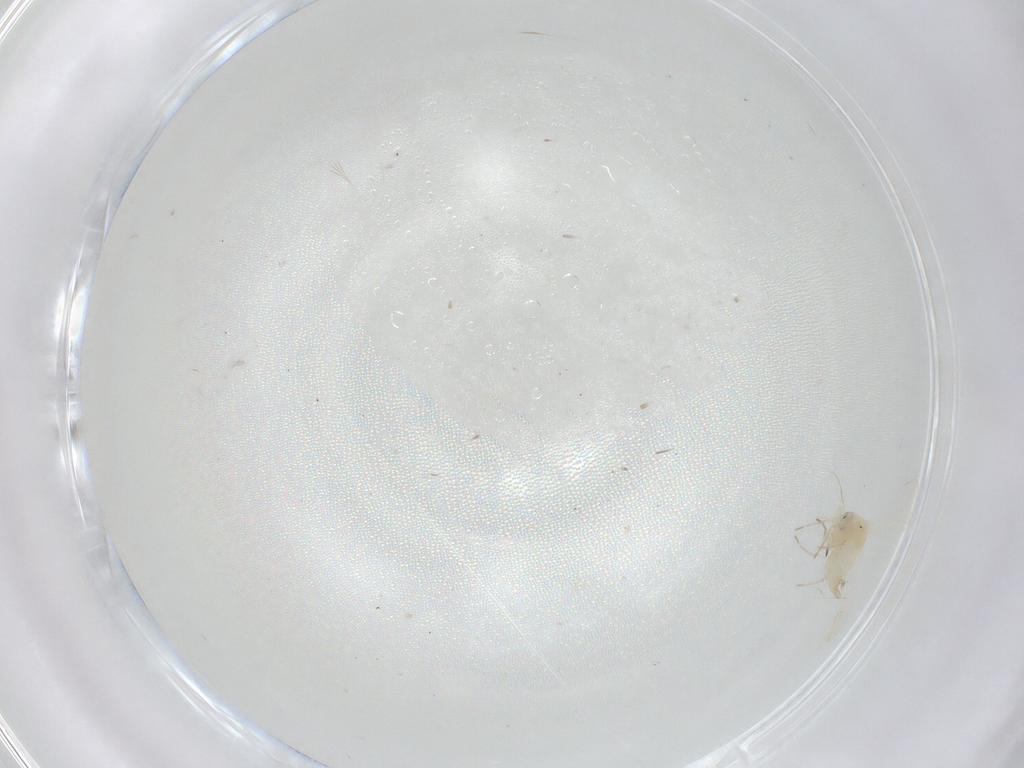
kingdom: Animalia
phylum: Arthropoda
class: Insecta
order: Hemiptera
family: Aleyrodidae
